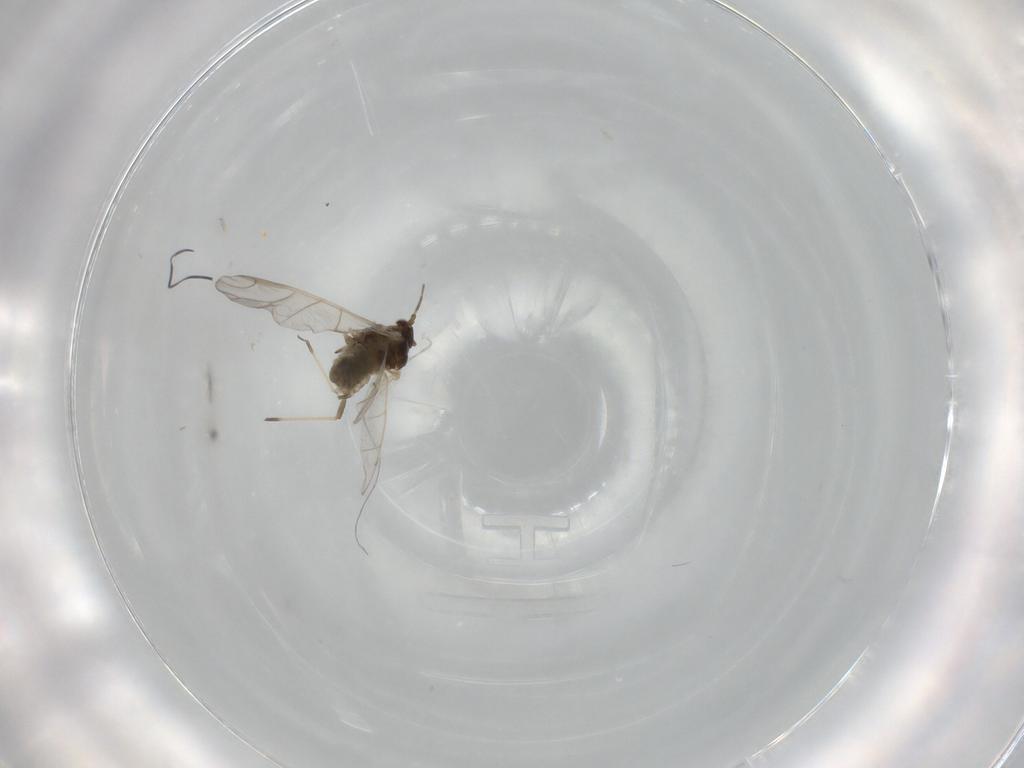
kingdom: Animalia
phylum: Arthropoda
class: Insecta
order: Hemiptera
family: Aphididae
